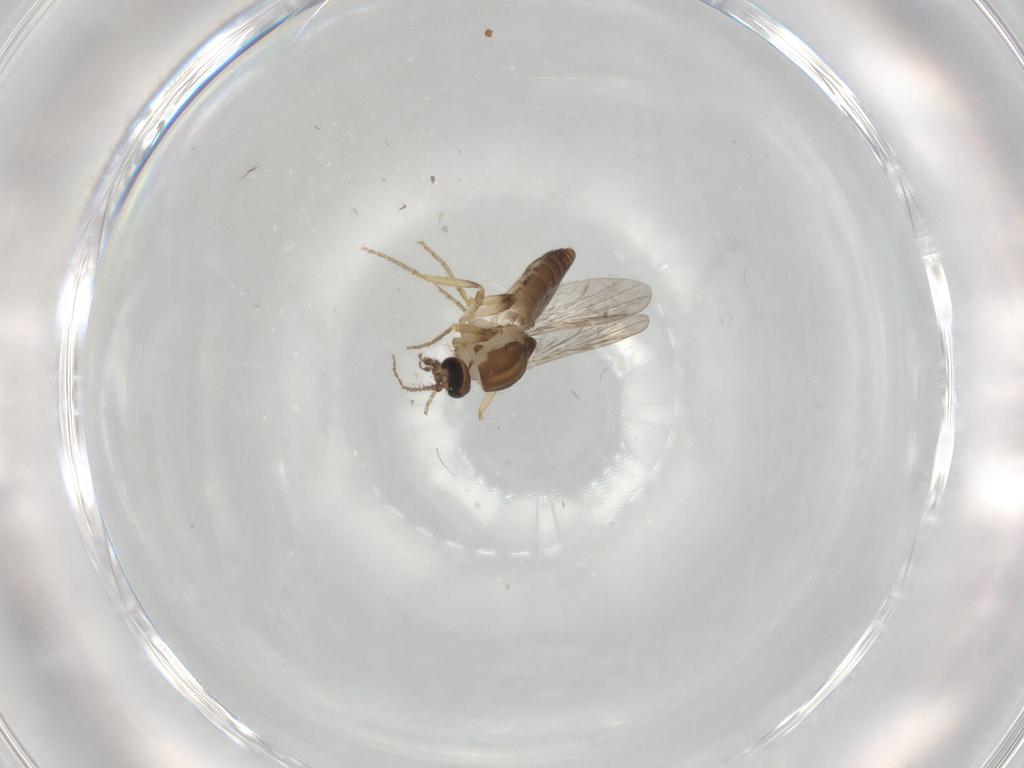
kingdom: Animalia
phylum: Arthropoda
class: Insecta
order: Diptera
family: Ceratopogonidae
